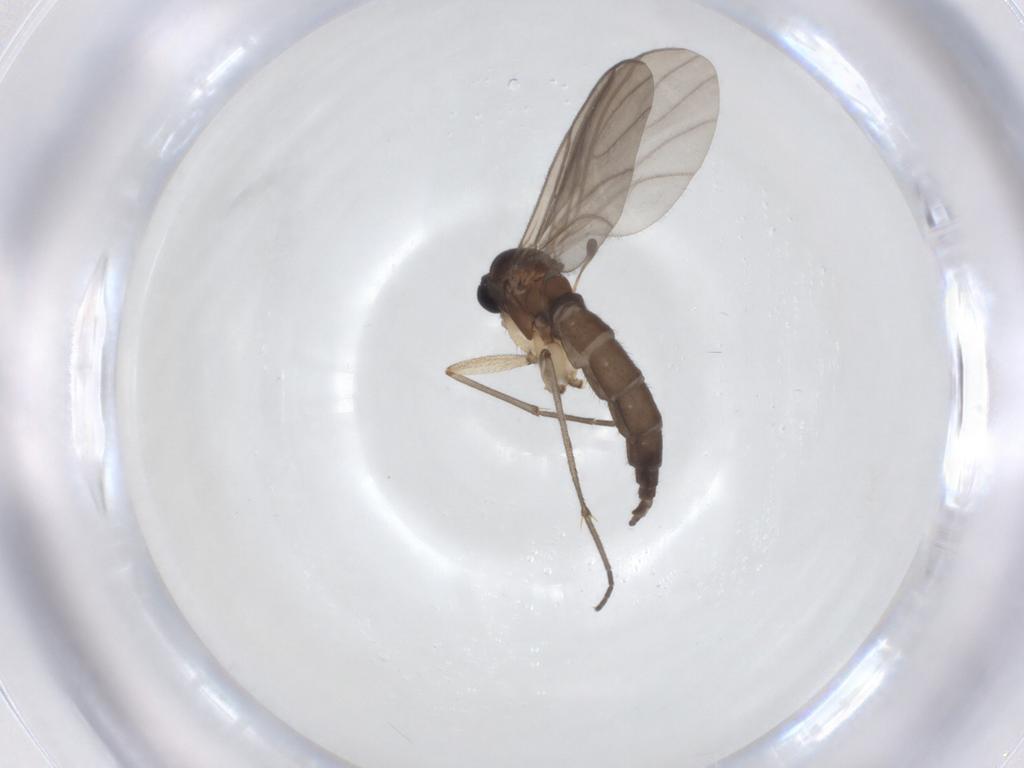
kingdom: Animalia
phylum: Arthropoda
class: Insecta
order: Diptera
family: Sciaridae
